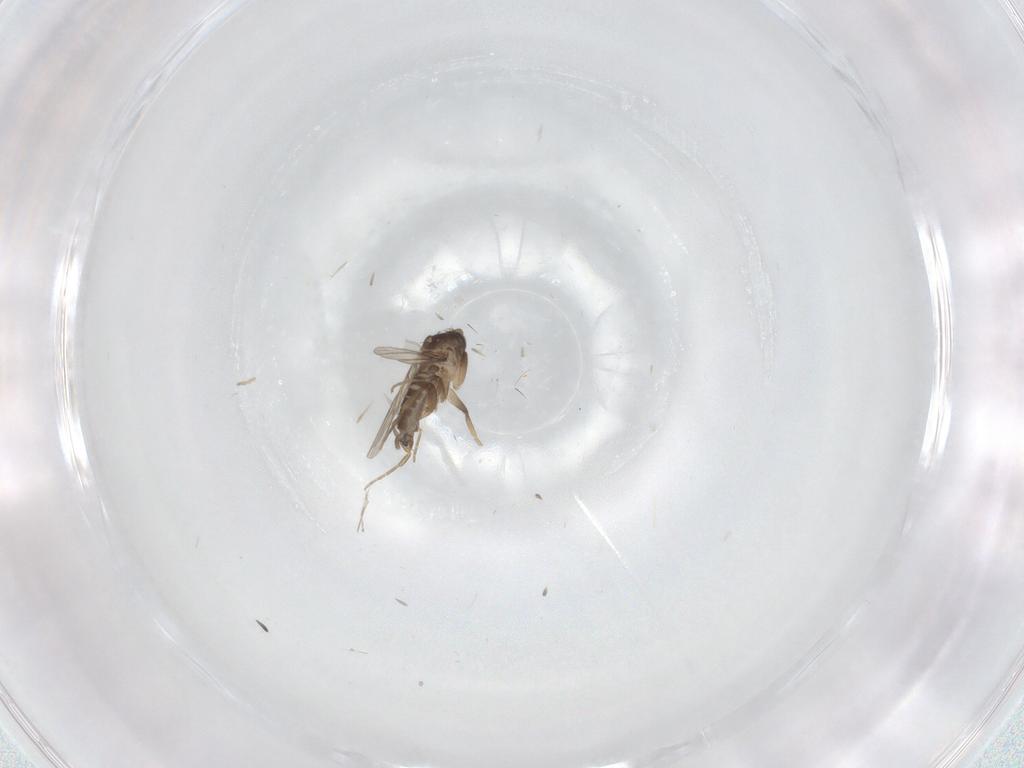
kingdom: Animalia
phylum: Arthropoda
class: Insecta
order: Diptera
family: Phoridae
